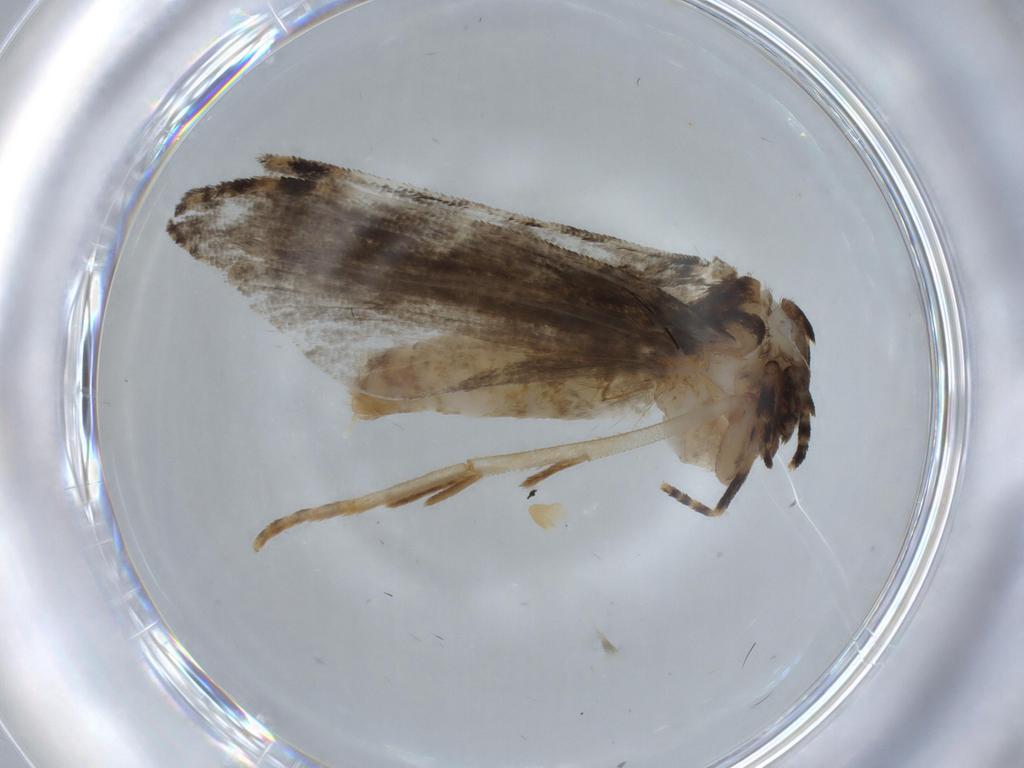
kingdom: Animalia
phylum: Arthropoda
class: Insecta
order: Lepidoptera
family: Tineidae
